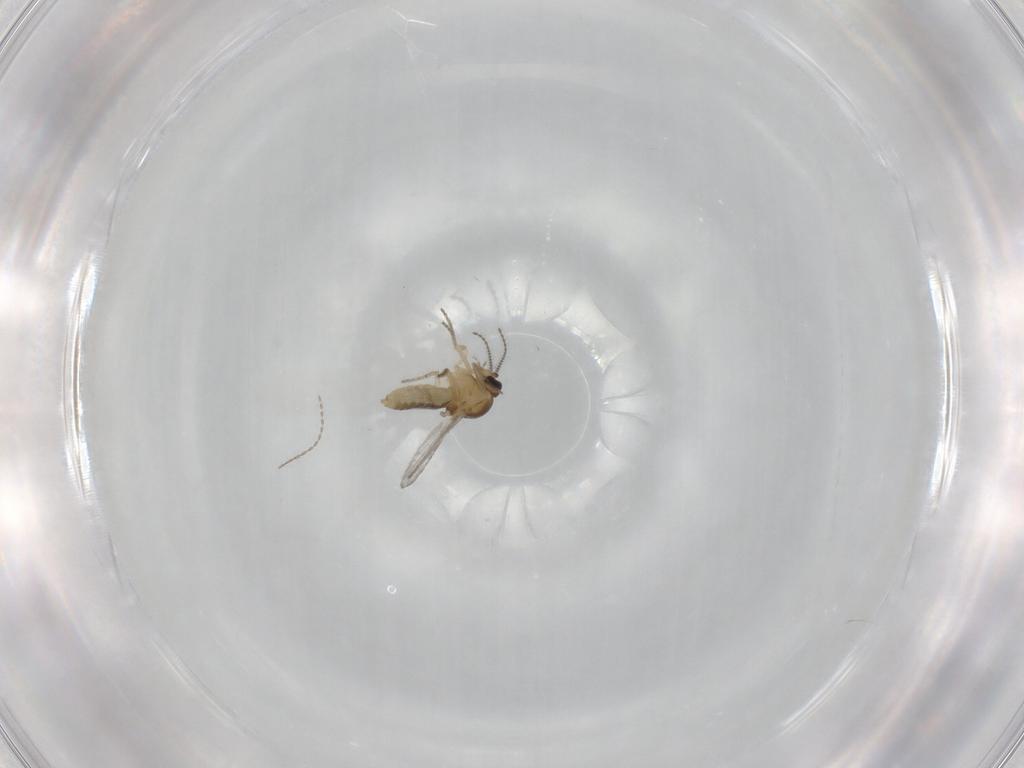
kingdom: Animalia
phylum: Arthropoda
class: Insecta
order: Diptera
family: Ceratopogonidae
